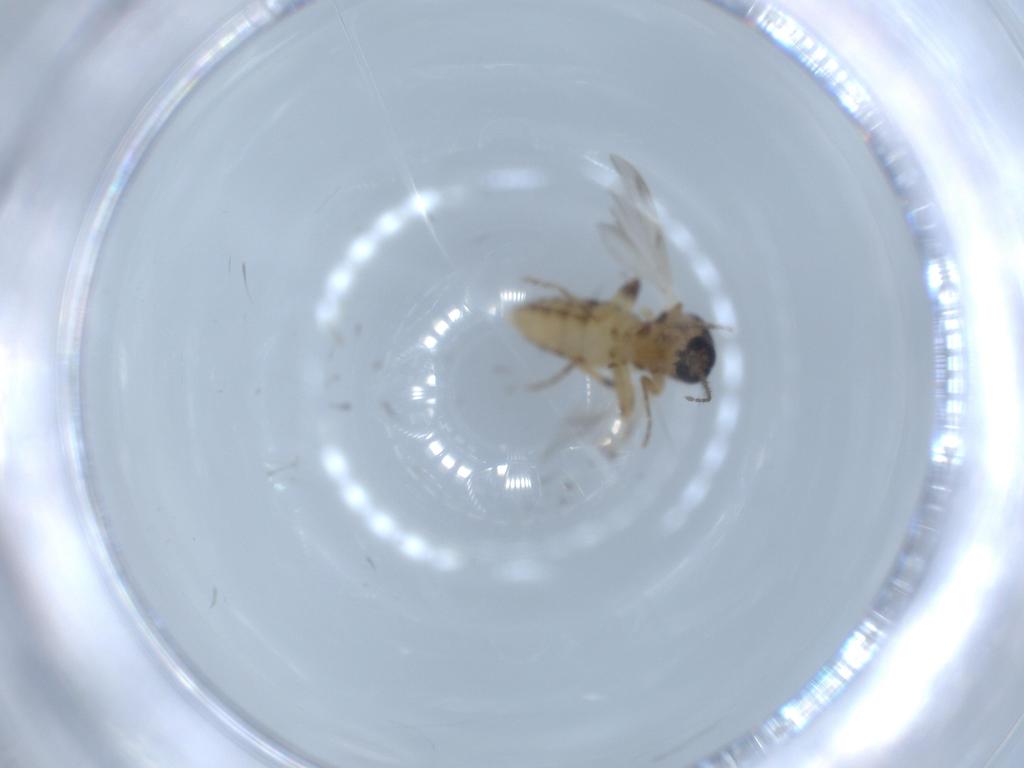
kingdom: Animalia
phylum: Arthropoda
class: Insecta
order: Diptera
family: Ceratopogonidae
